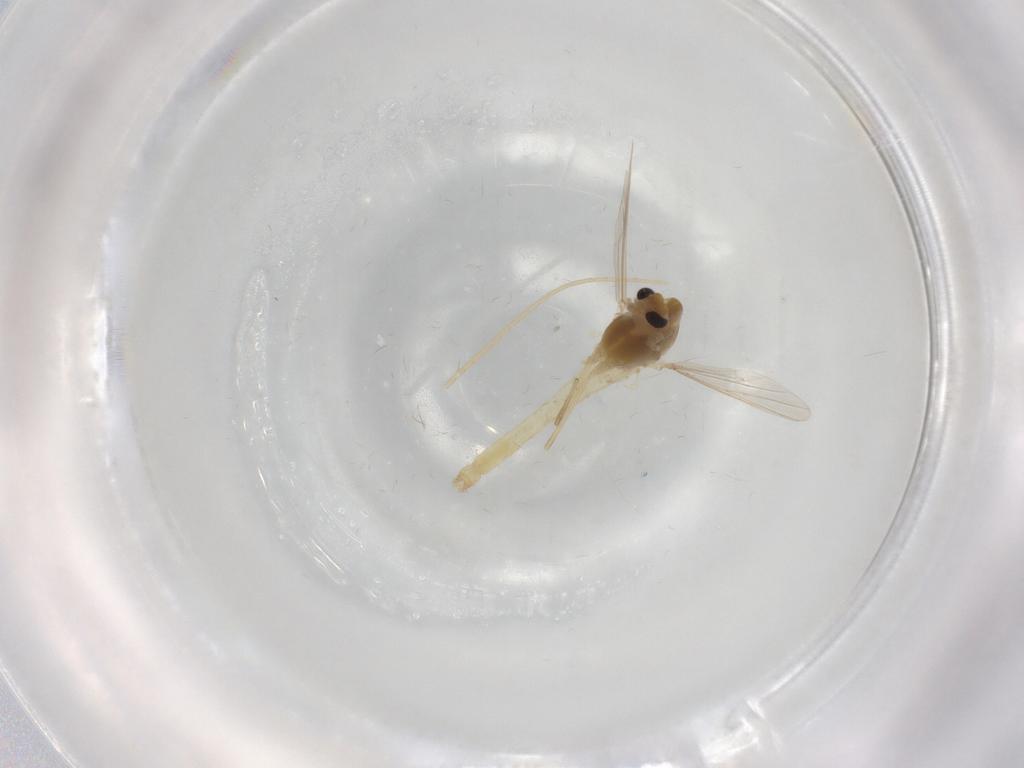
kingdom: Animalia
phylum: Arthropoda
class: Insecta
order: Diptera
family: Chironomidae
